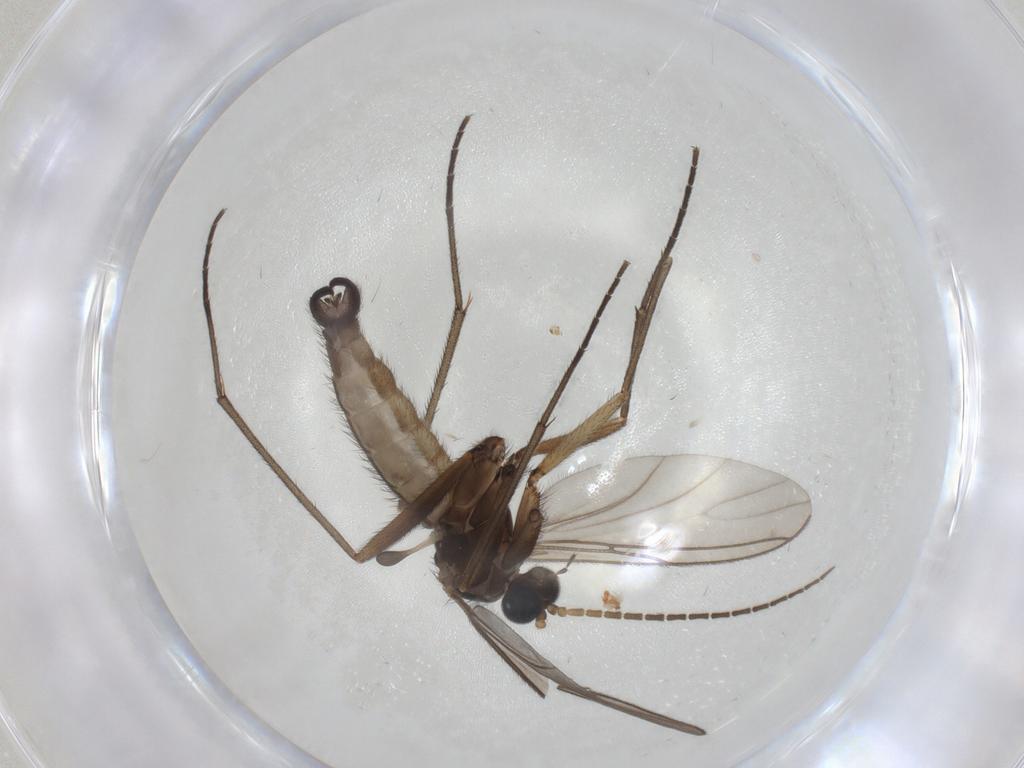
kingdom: Animalia
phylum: Arthropoda
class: Insecta
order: Diptera
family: Sciaridae
